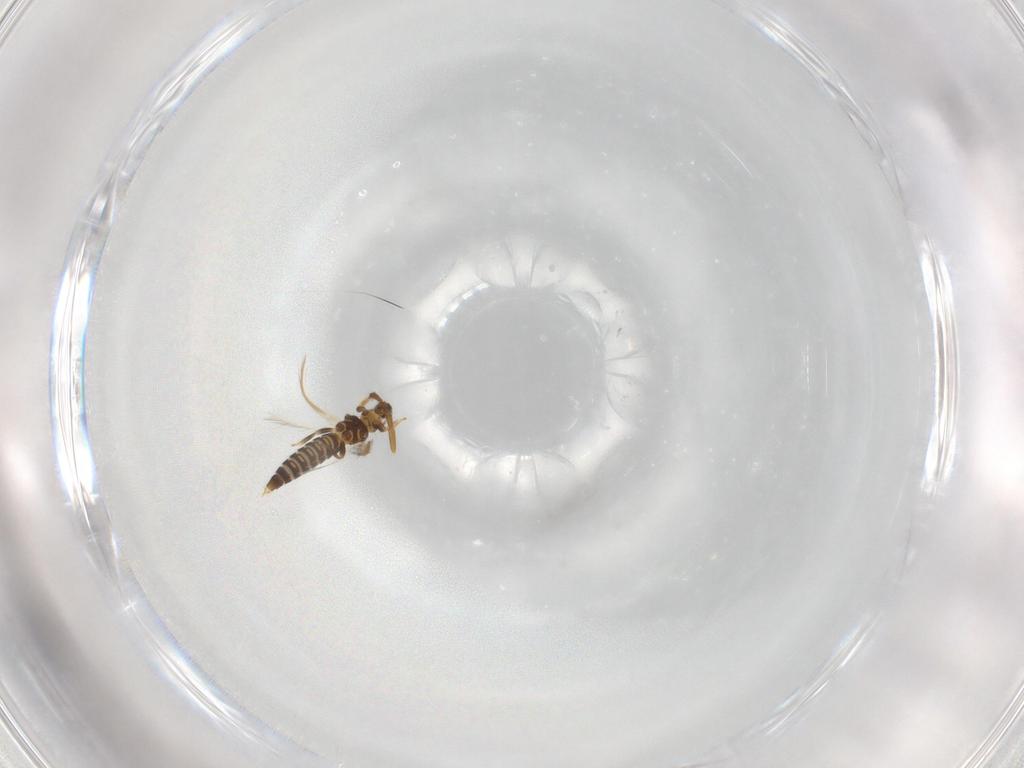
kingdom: Animalia
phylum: Arthropoda
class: Insecta
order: Thysanoptera
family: Thripidae
